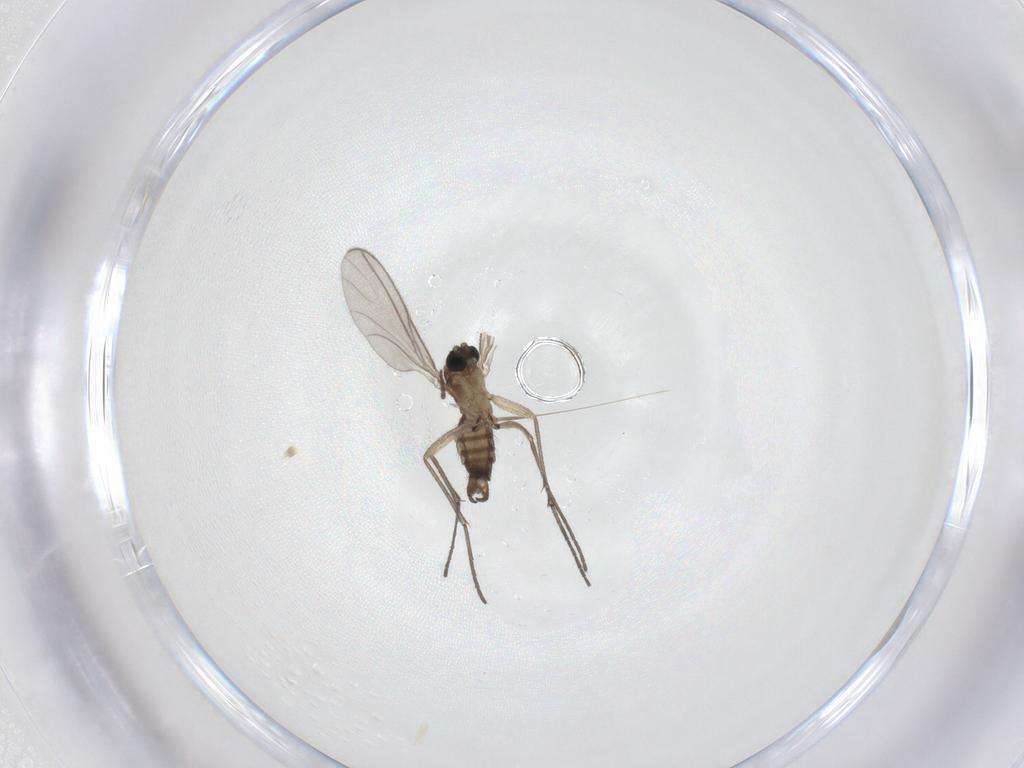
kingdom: Animalia
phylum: Arthropoda
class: Insecta
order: Diptera
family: Sciaridae
